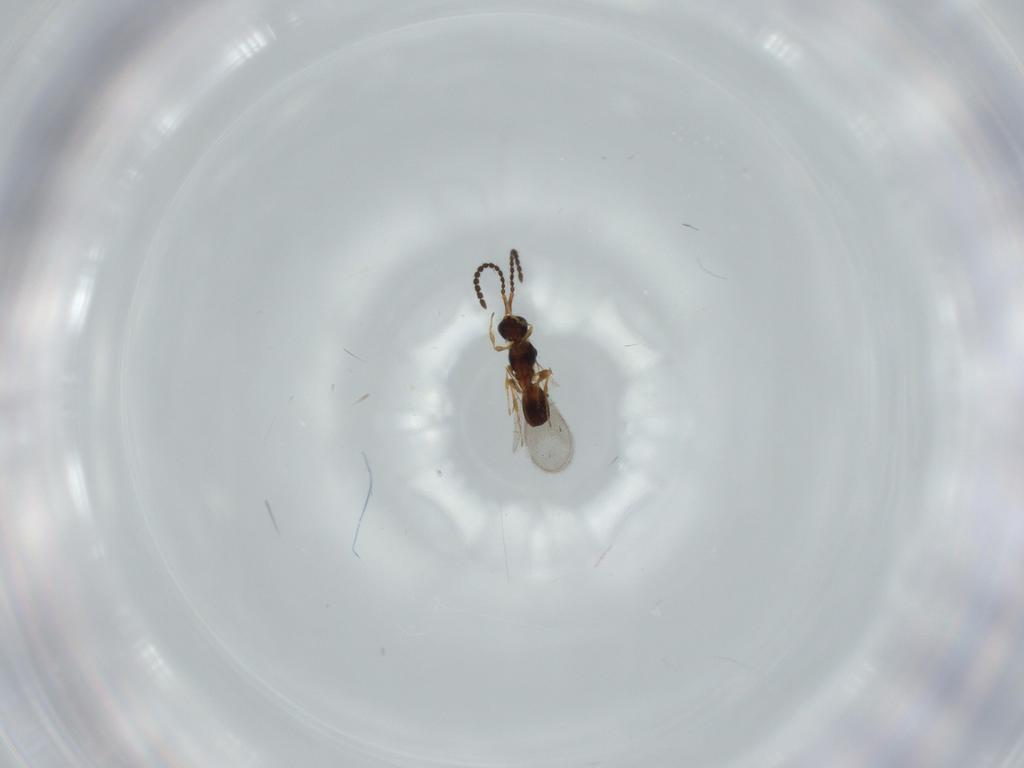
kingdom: Animalia
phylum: Arthropoda
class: Insecta
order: Hymenoptera
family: Diapriidae
